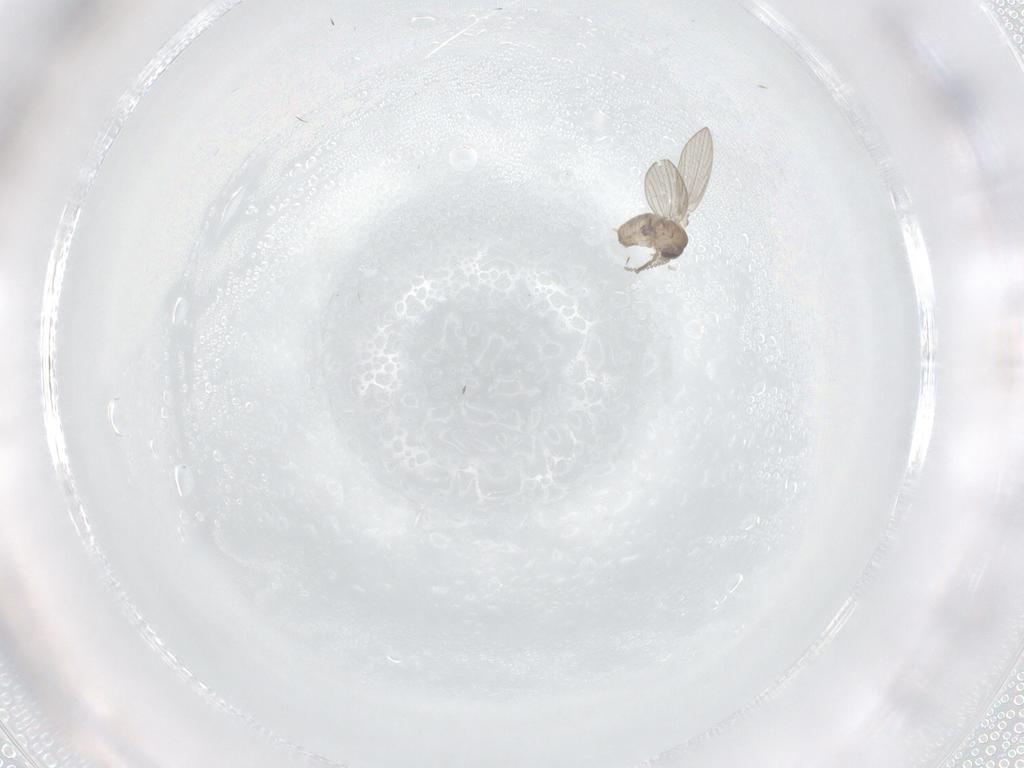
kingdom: Animalia
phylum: Arthropoda
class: Insecta
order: Diptera
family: Psychodidae
